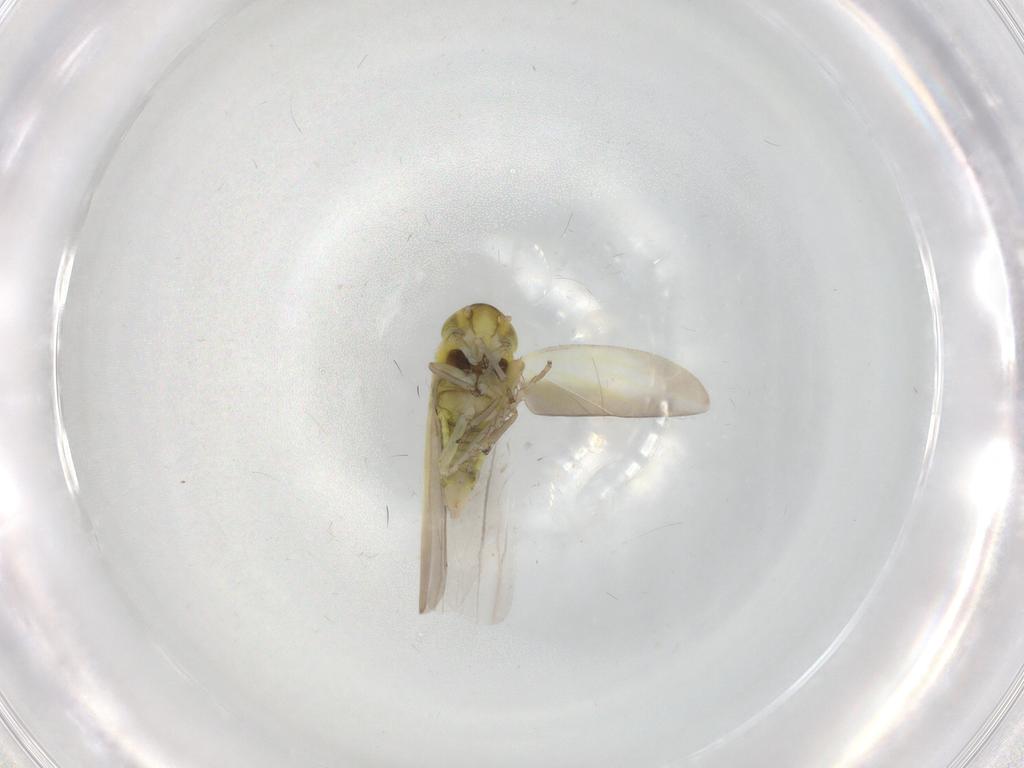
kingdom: Animalia
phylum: Arthropoda
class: Insecta
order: Hemiptera
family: Cicadellidae
